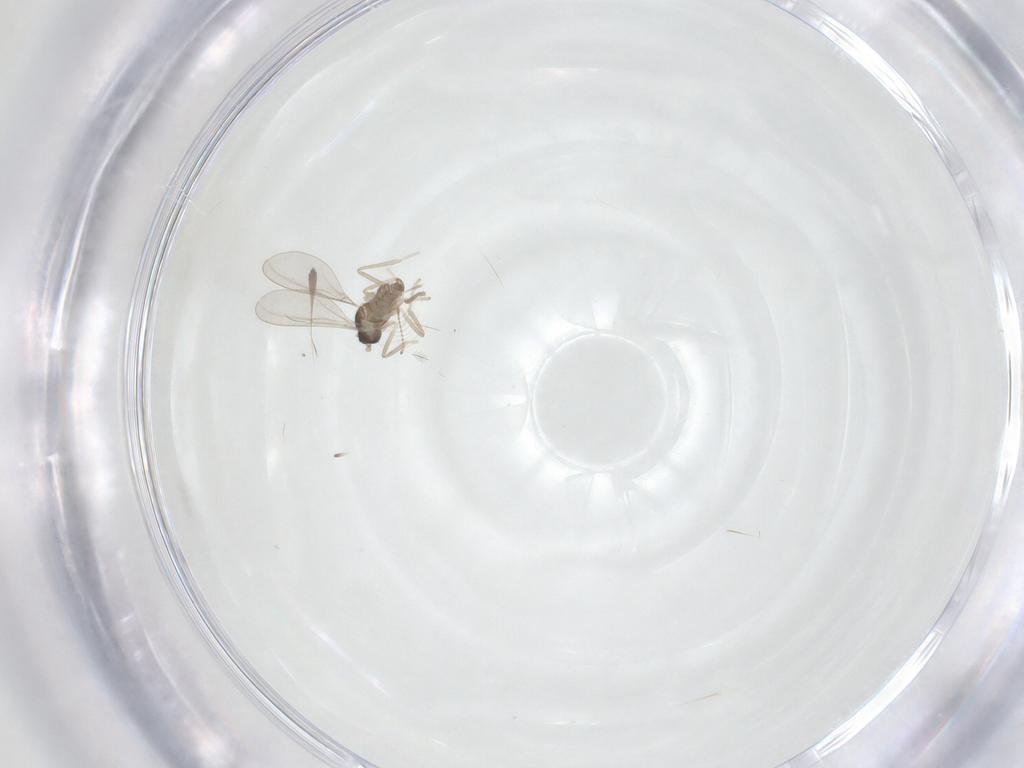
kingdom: Animalia
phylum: Arthropoda
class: Insecta
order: Diptera
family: Cecidomyiidae
